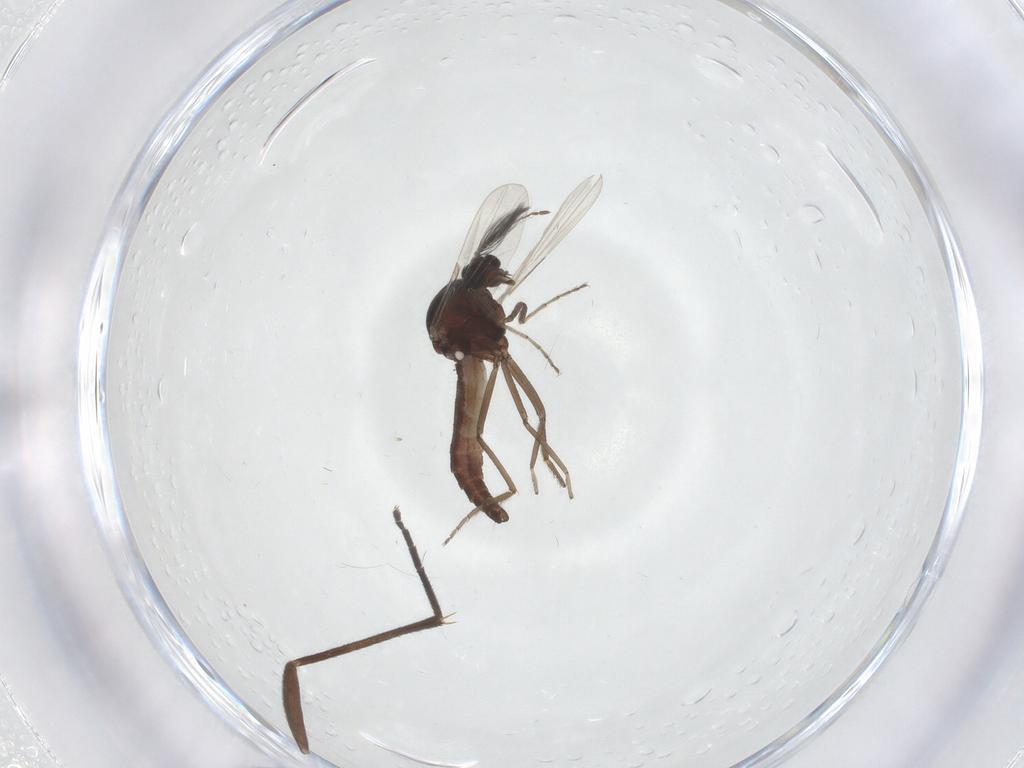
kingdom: Animalia
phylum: Arthropoda
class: Insecta
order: Diptera
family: Ceratopogonidae
